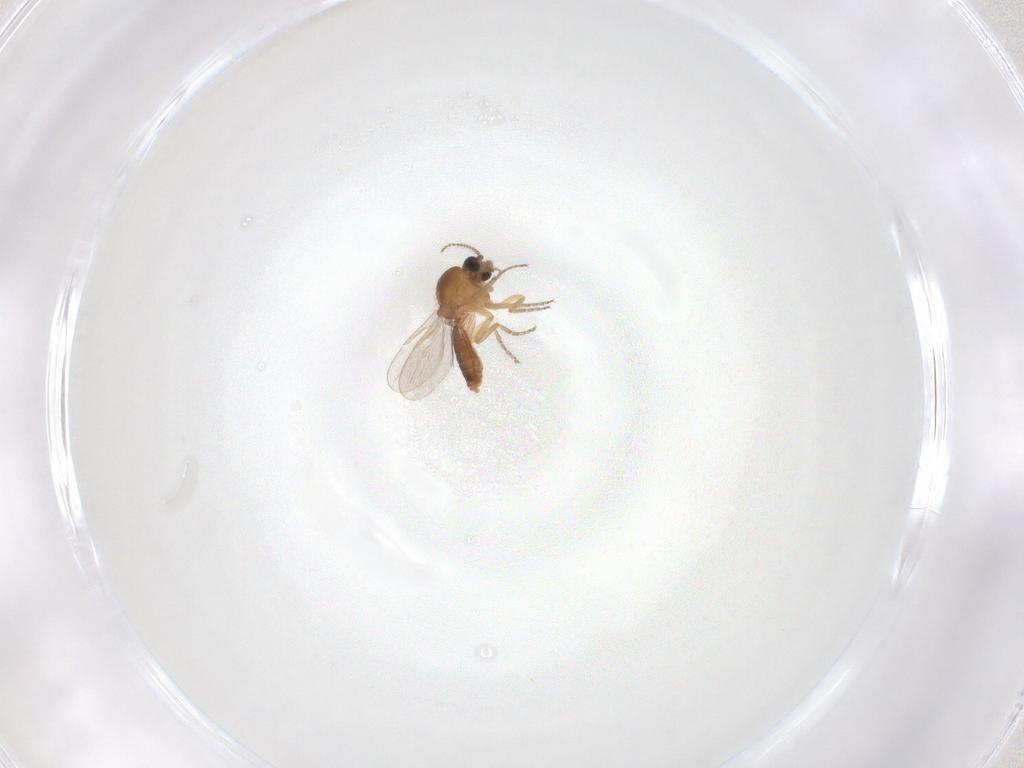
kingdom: Animalia
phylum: Arthropoda
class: Insecta
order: Diptera
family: Ceratopogonidae
